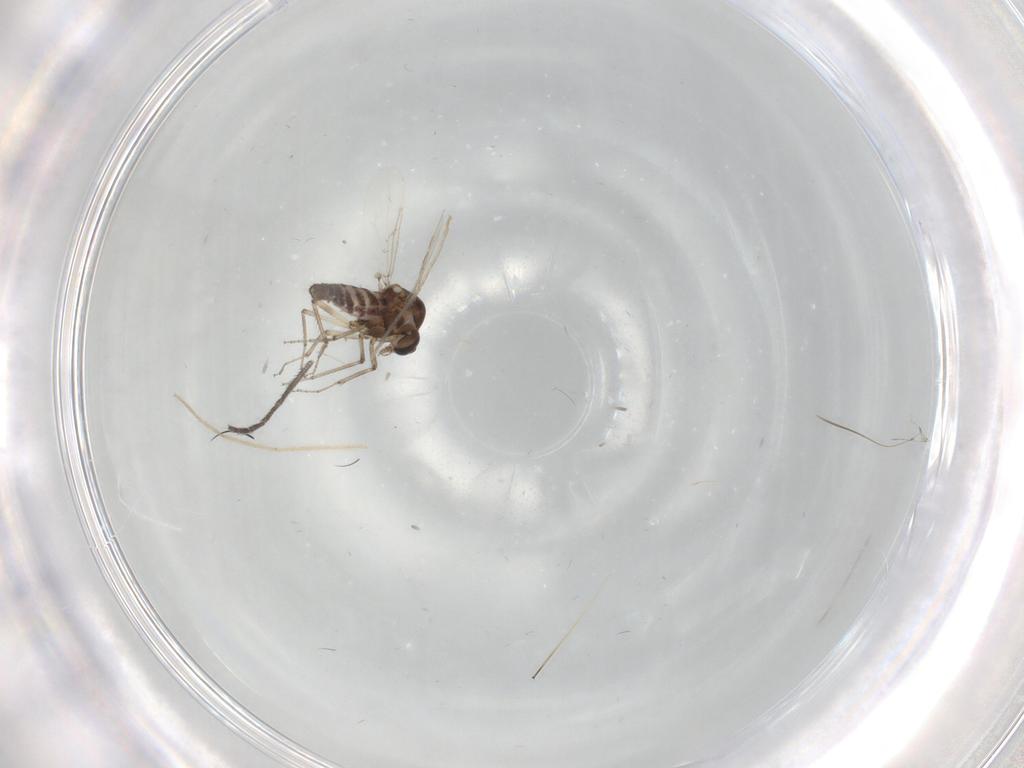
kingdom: Animalia
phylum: Arthropoda
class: Insecta
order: Diptera
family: Ceratopogonidae
